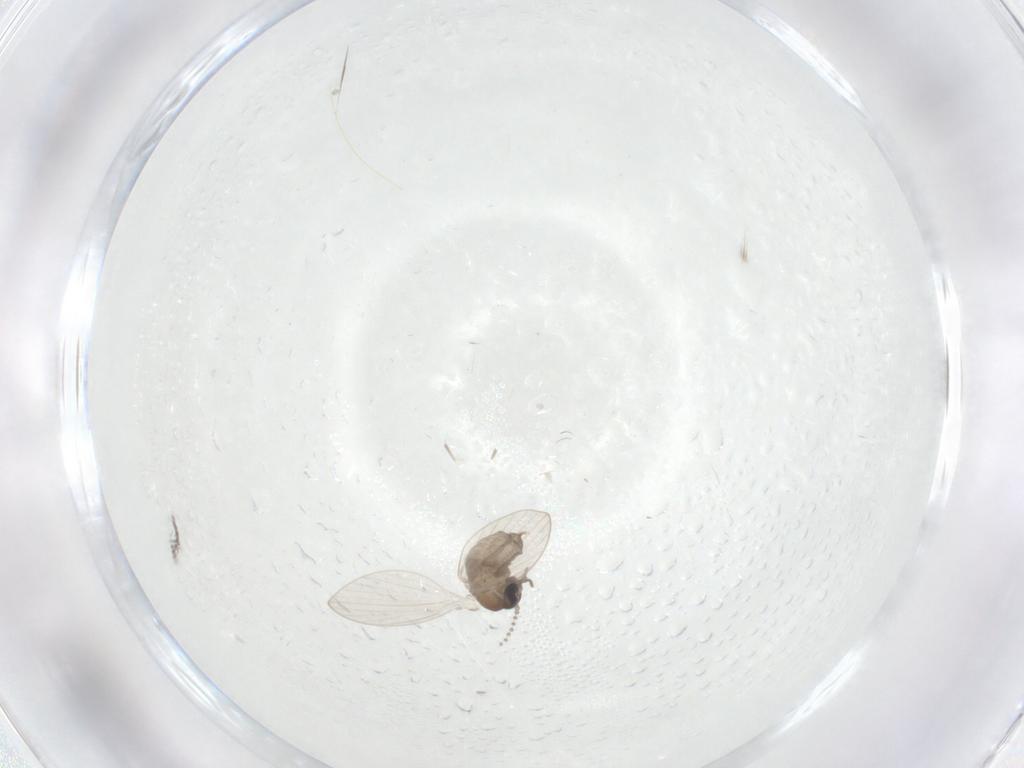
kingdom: Animalia
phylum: Arthropoda
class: Insecta
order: Diptera
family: Psychodidae
